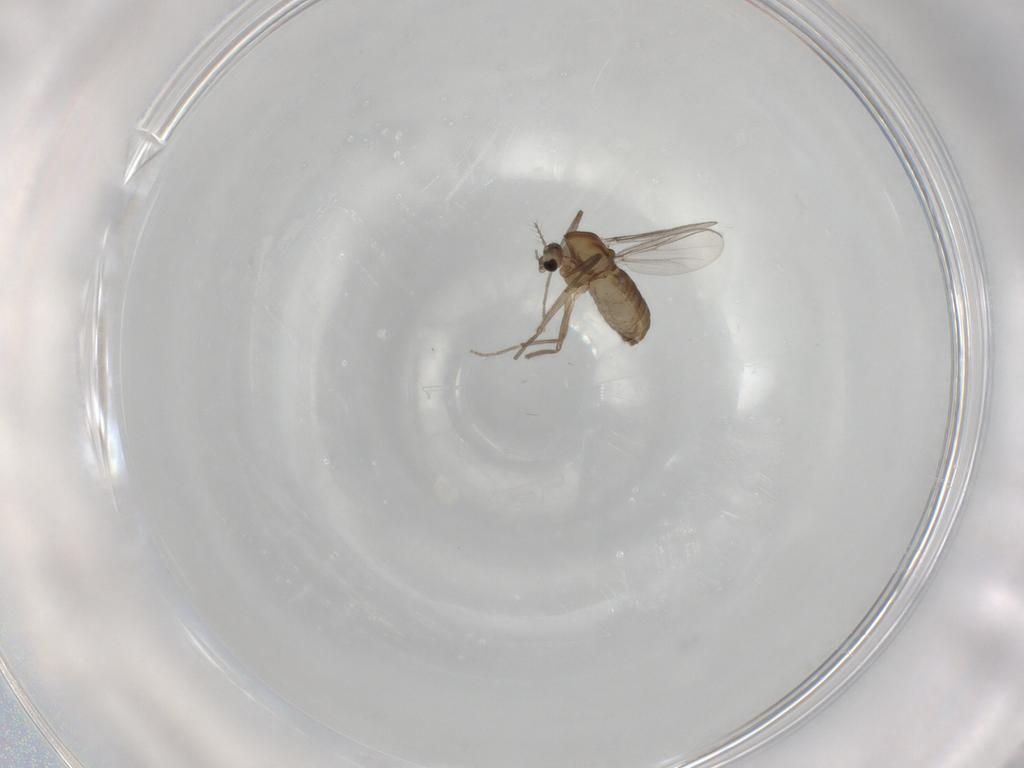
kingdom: Animalia
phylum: Arthropoda
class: Insecta
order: Diptera
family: Chironomidae
